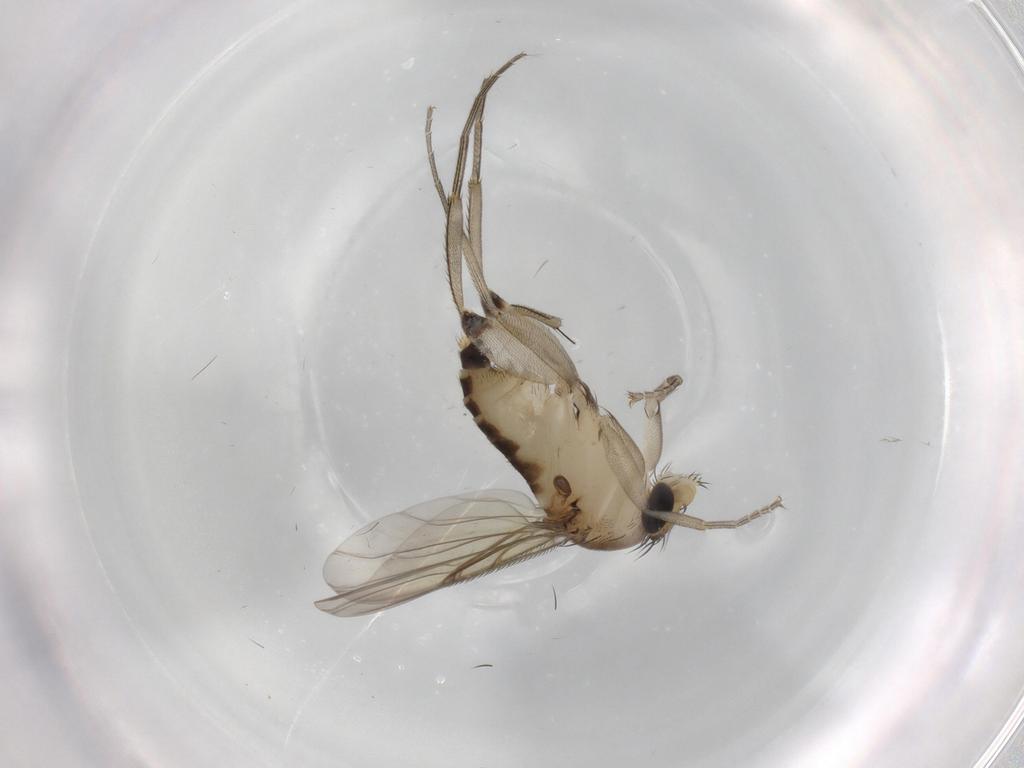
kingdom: Animalia
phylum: Arthropoda
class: Insecta
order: Diptera
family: Phoridae
